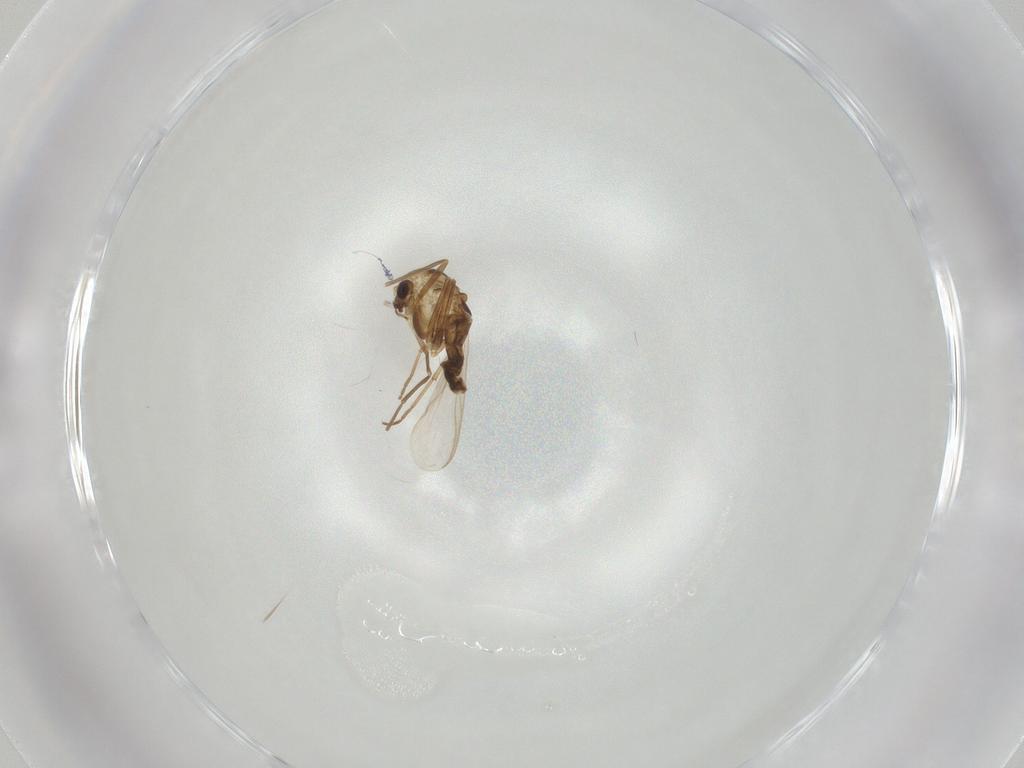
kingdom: Animalia
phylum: Arthropoda
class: Insecta
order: Diptera
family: Chironomidae
